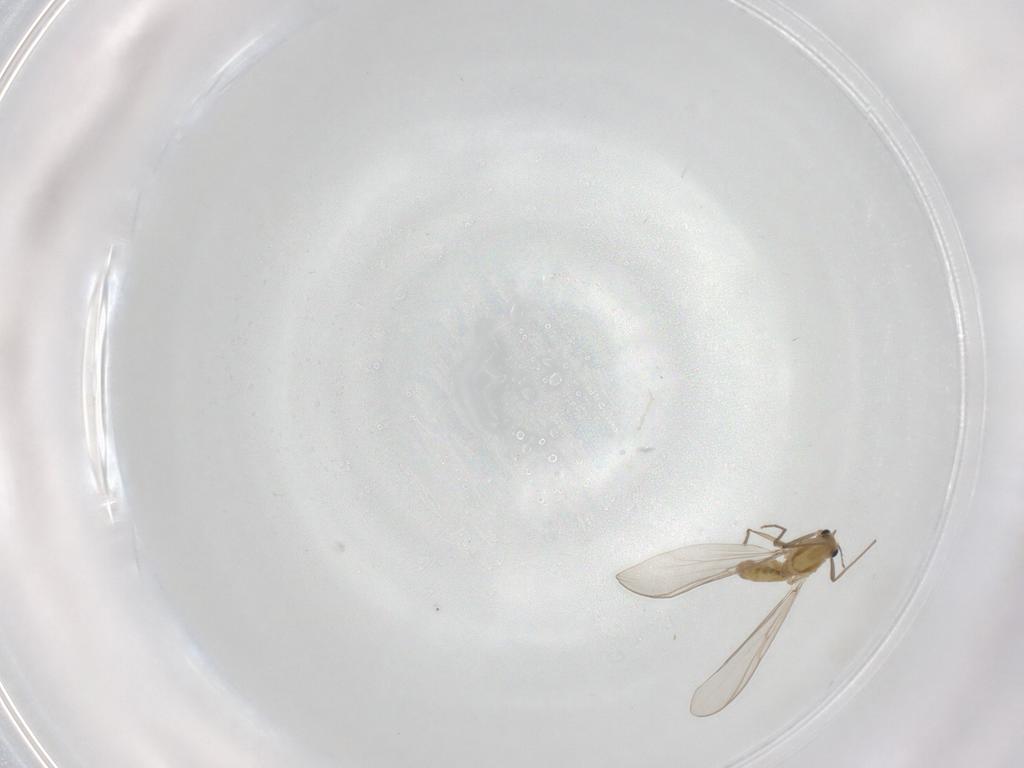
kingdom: Animalia
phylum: Arthropoda
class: Insecta
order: Diptera
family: Chironomidae
